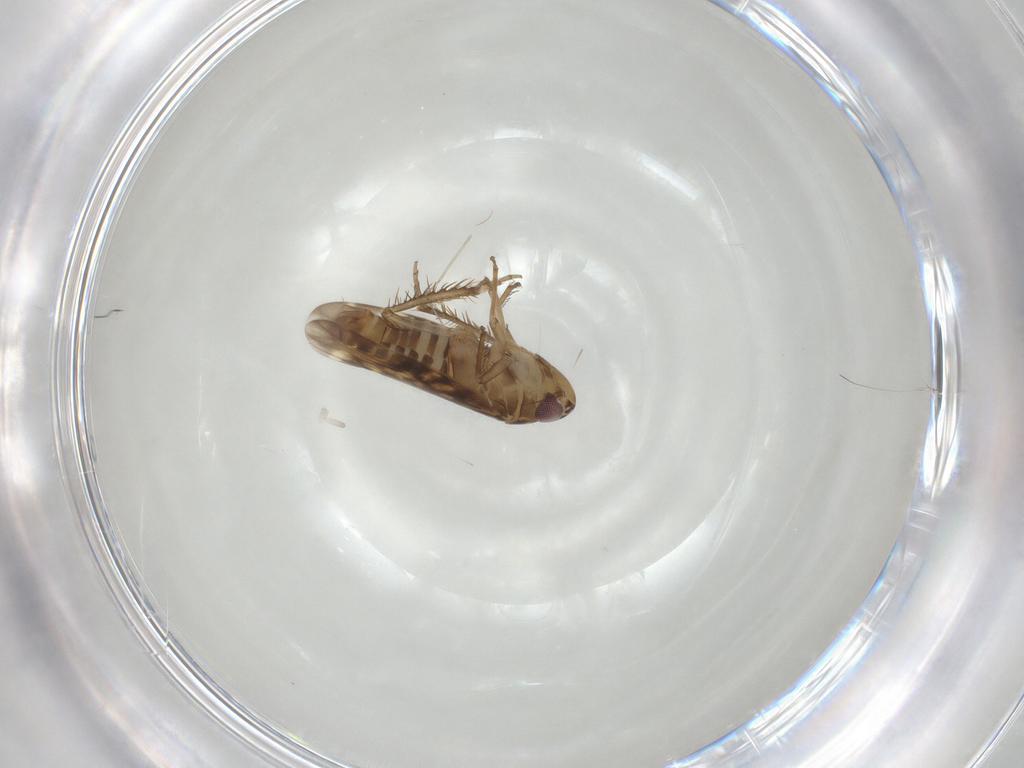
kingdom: Animalia
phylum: Arthropoda
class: Insecta
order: Hemiptera
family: Cicadellidae
